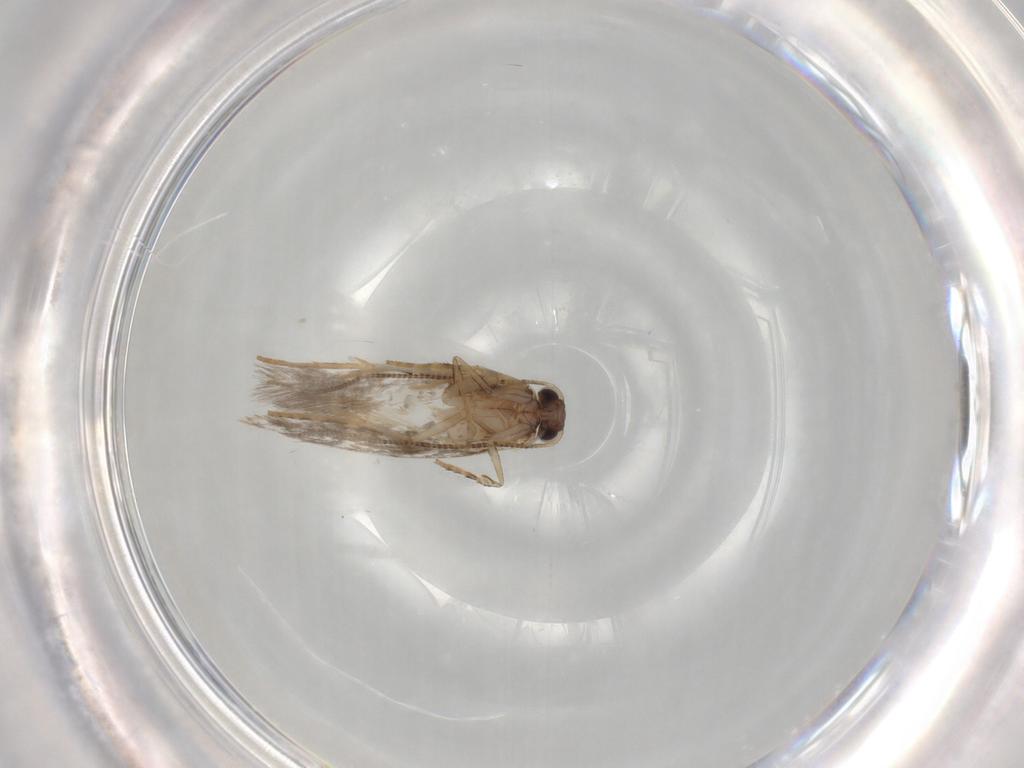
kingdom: Animalia
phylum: Arthropoda
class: Insecta
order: Lepidoptera
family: Tineidae
